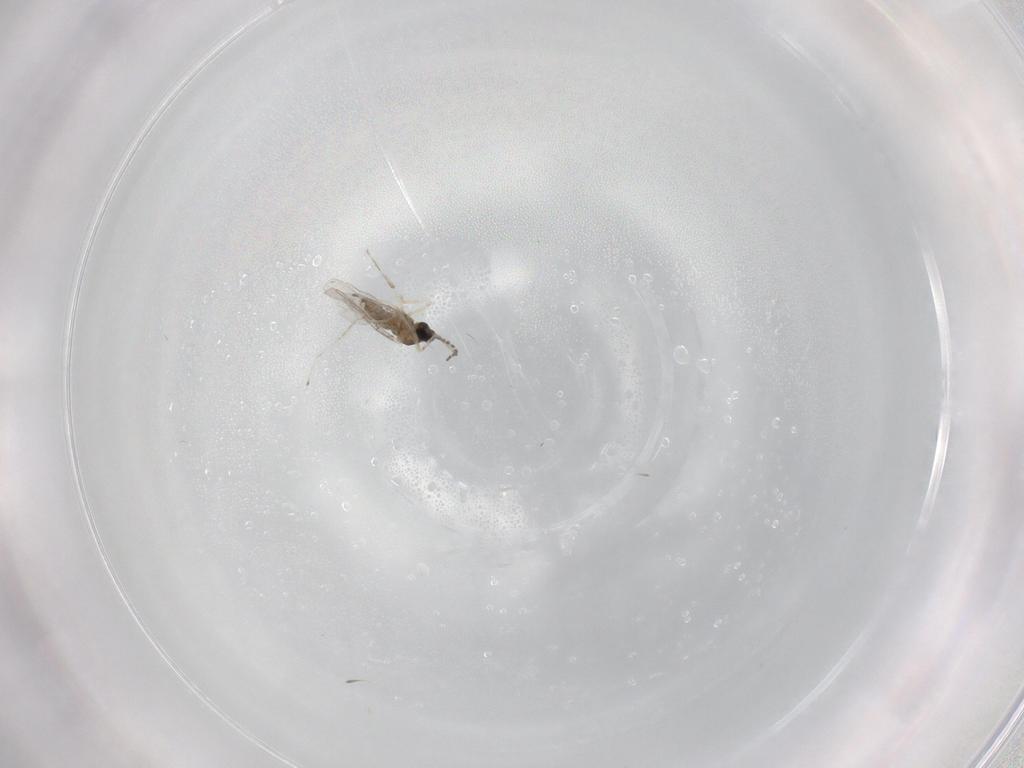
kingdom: Animalia
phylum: Arthropoda
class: Insecta
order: Diptera
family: Cecidomyiidae
